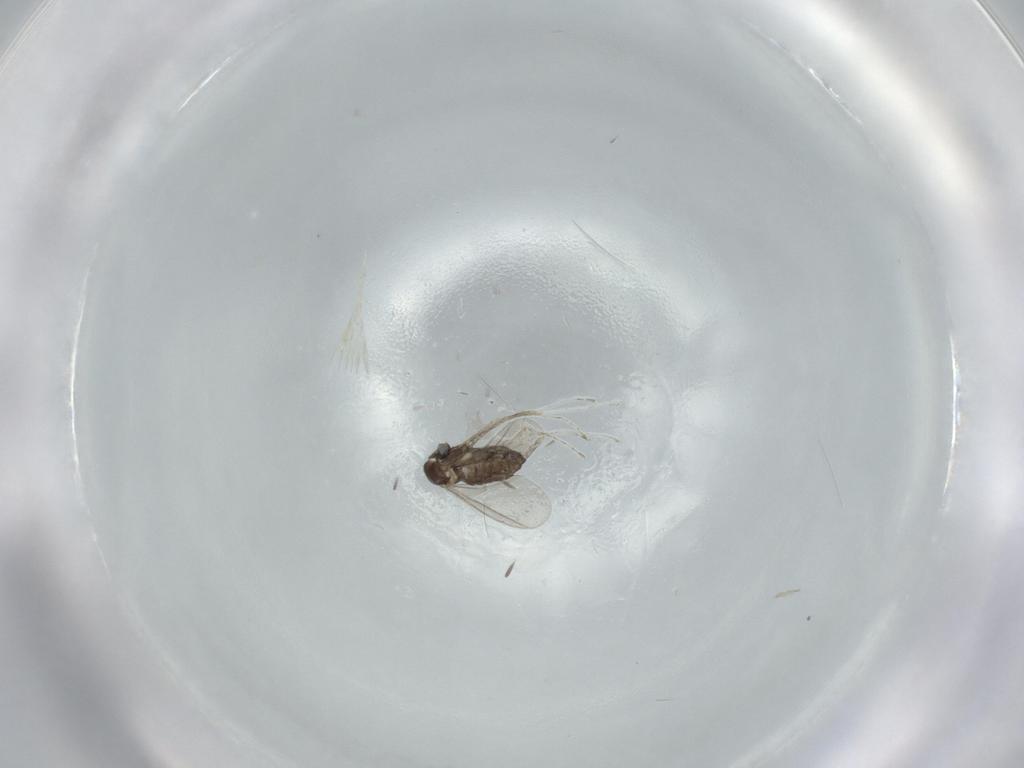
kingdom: Animalia
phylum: Arthropoda
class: Insecta
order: Diptera
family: Cecidomyiidae
